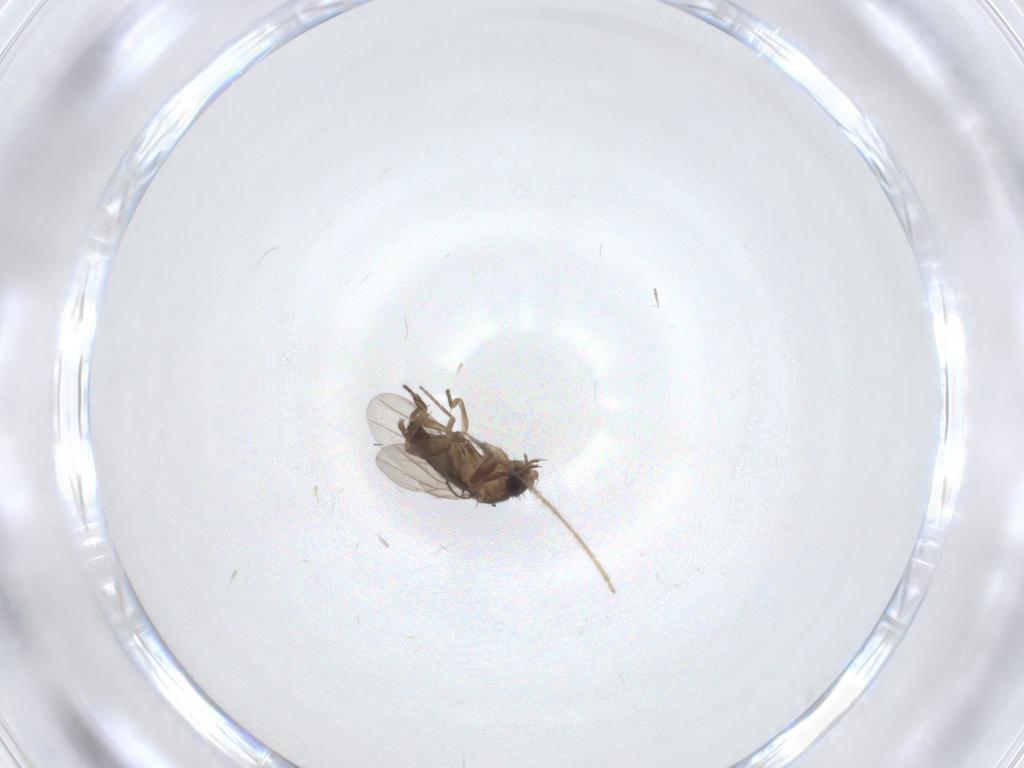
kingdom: Animalia
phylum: Arthropoda
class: Insecta
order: Diptera
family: Phoridae
